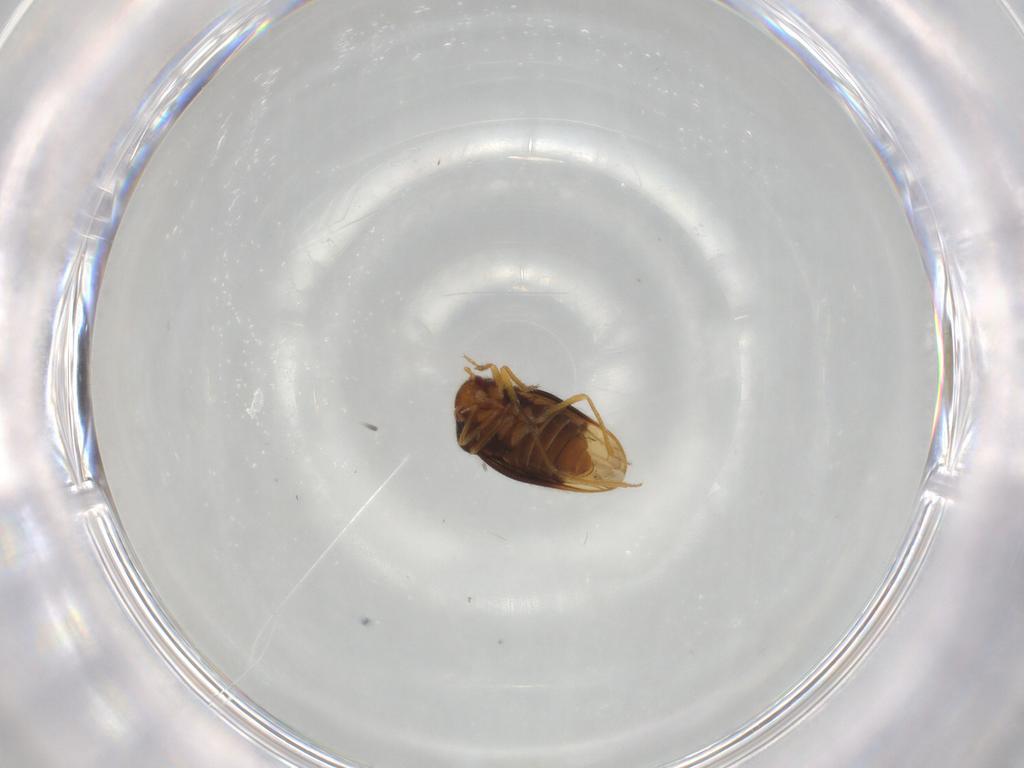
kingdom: Animalia
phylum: Arthropoda
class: Insecta
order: Hemiptera
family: Schizopteridae
